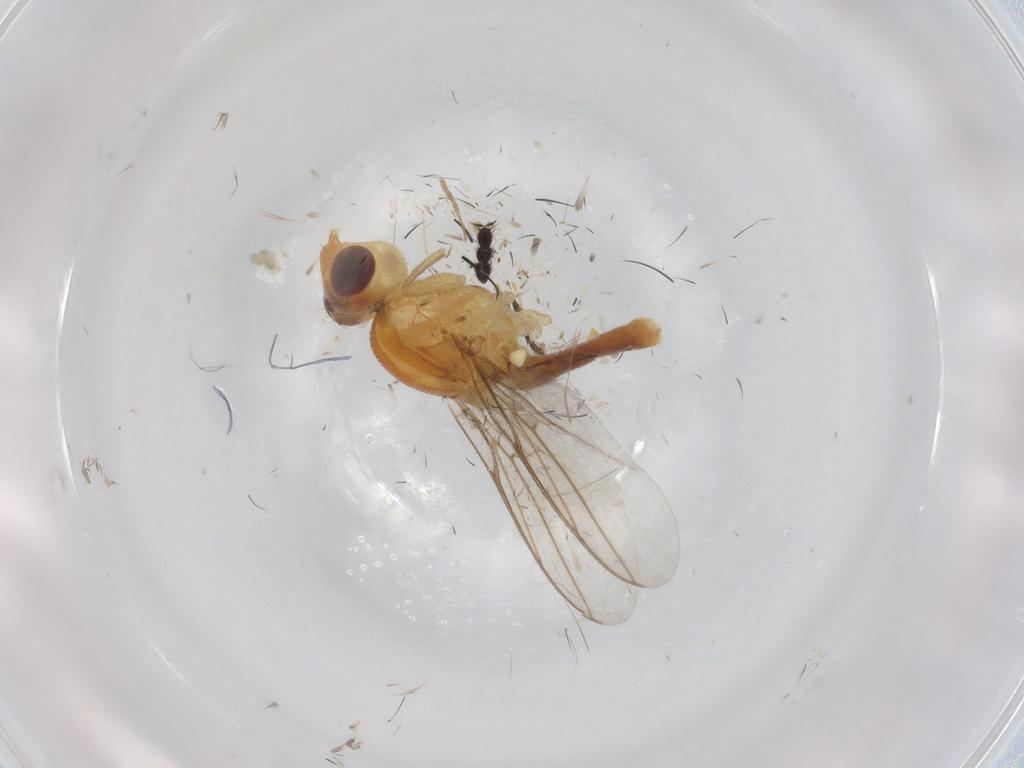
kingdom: Animalia
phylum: Arthropoda
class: Insecta
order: Diptera
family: Chloropidae
